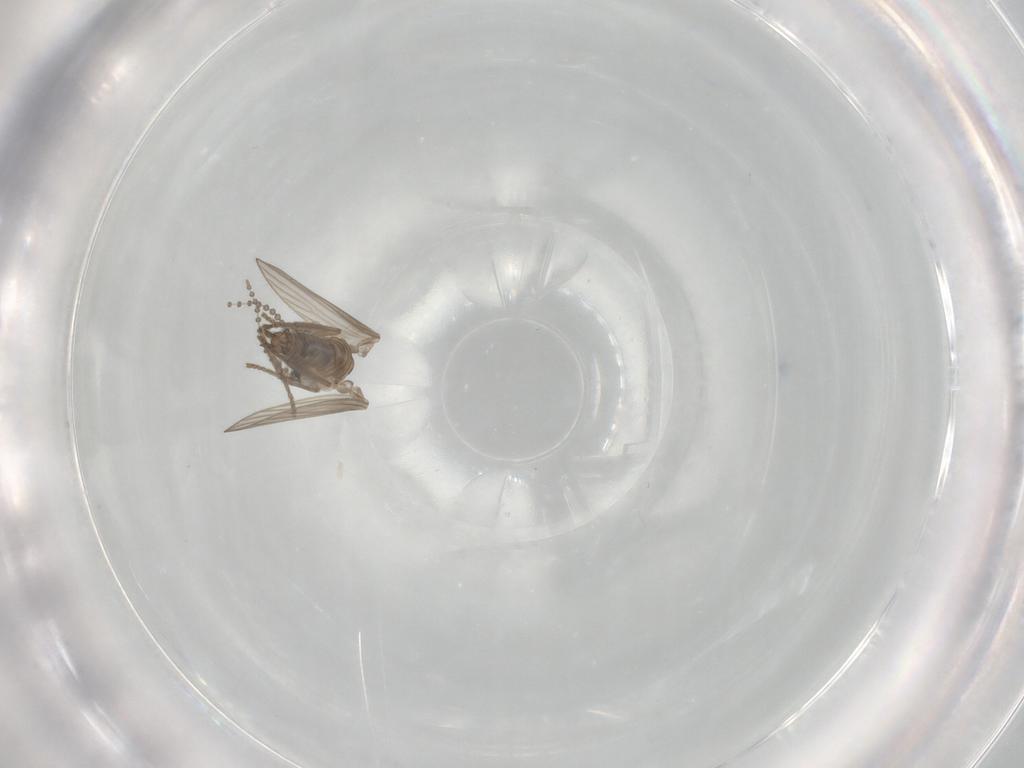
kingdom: Animalia
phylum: Arthropoda
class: Insecta
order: Diptera
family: Psychodidae
